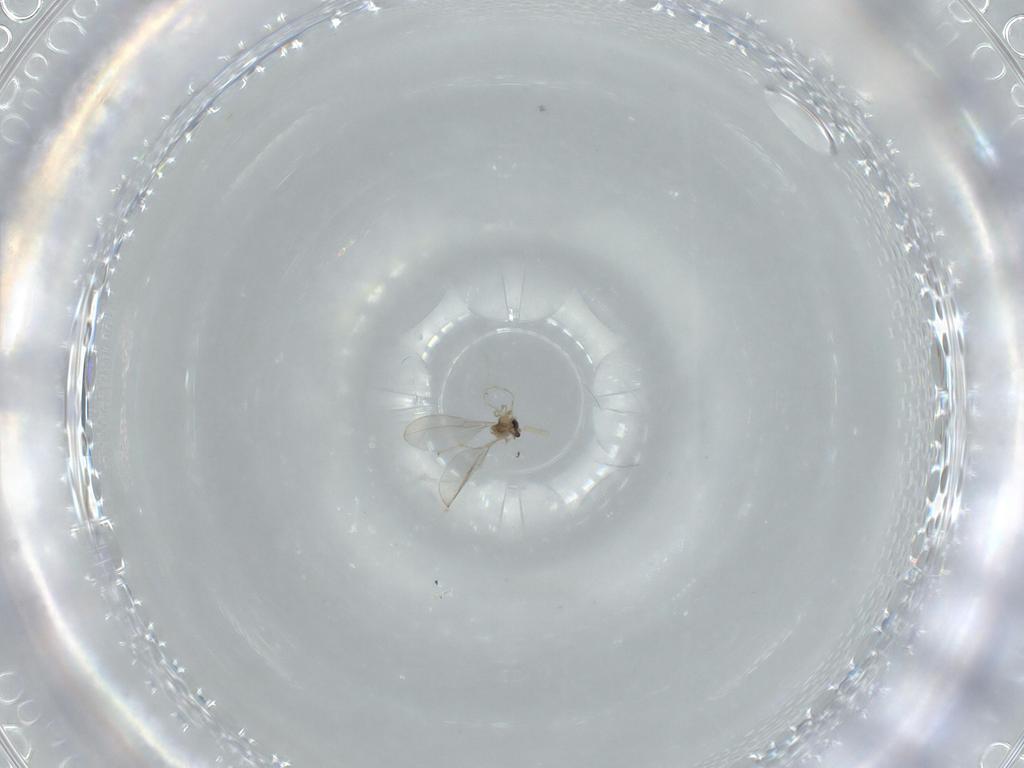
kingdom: Animalia
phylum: Arthropoda
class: Insecta
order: Diptera
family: Cecidomyiidae
